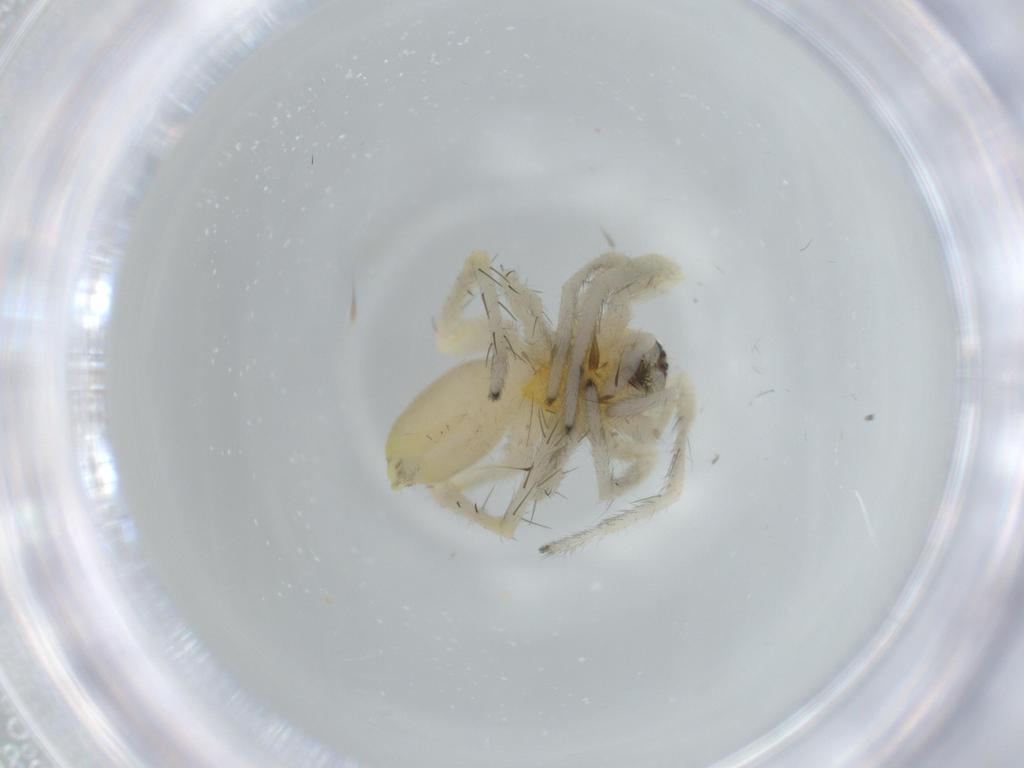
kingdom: Animalia
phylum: Arthropoda
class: Arachnida
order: Araneae
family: Anyphaenidae
